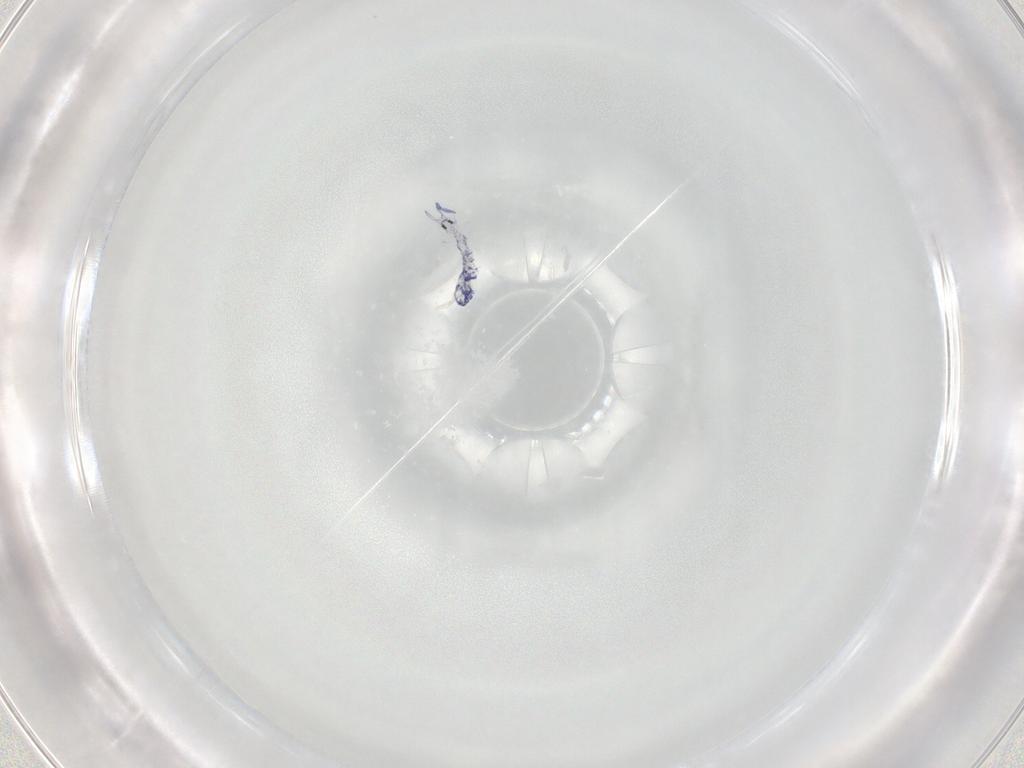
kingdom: Animalia
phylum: Arthropoda
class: Collembola
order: Entomobryomorpha
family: Entomobryidae
